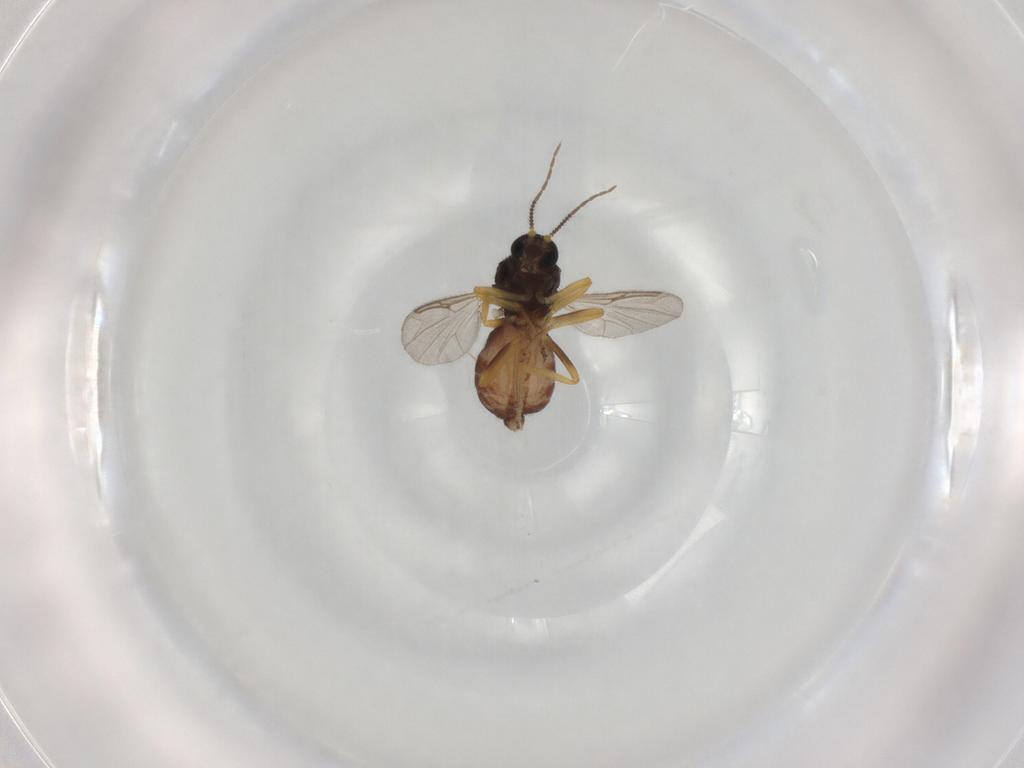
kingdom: Animalia
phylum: Arthropoda
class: Insecta
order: Diptera
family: Ceratopogonidae
